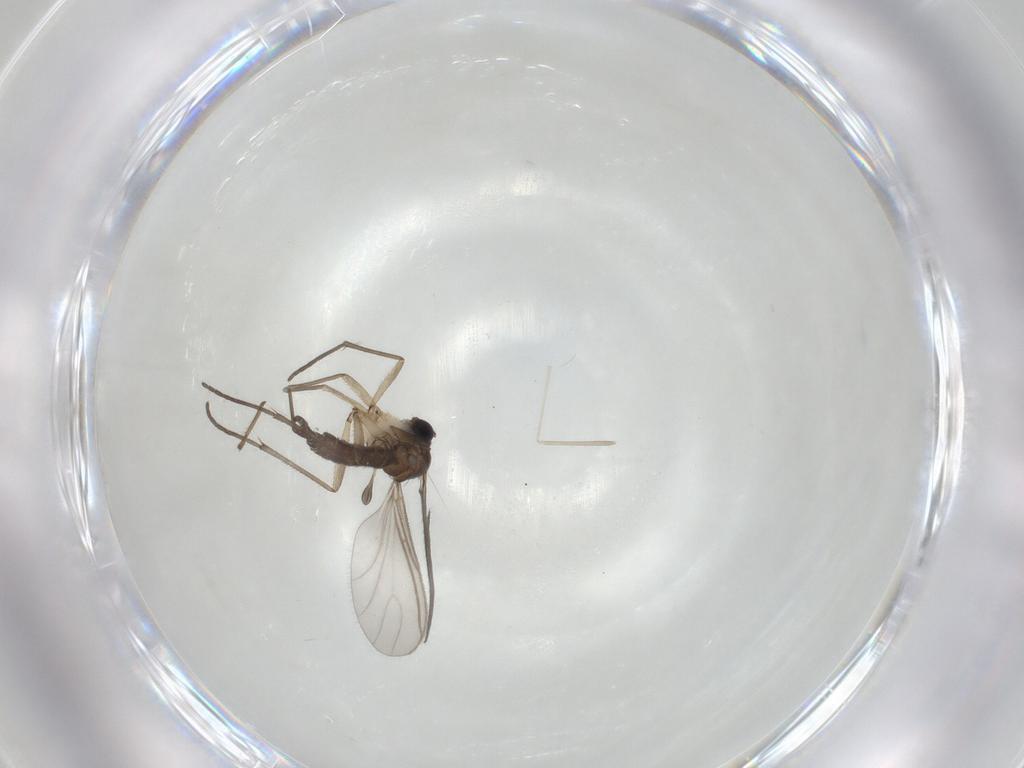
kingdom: Animalia
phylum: Arthropoda
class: Insecta
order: Diptera
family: Sciaridae
